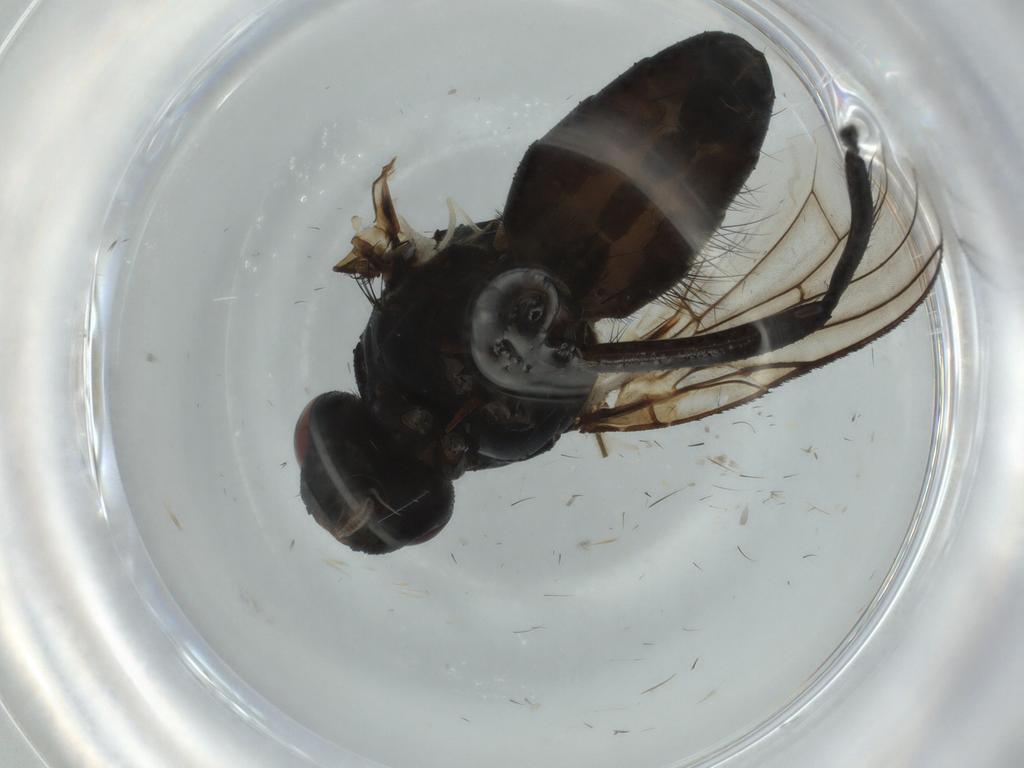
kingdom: Animalia
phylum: Arthropoda
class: Insecta
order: Diptera
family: Muscidae
